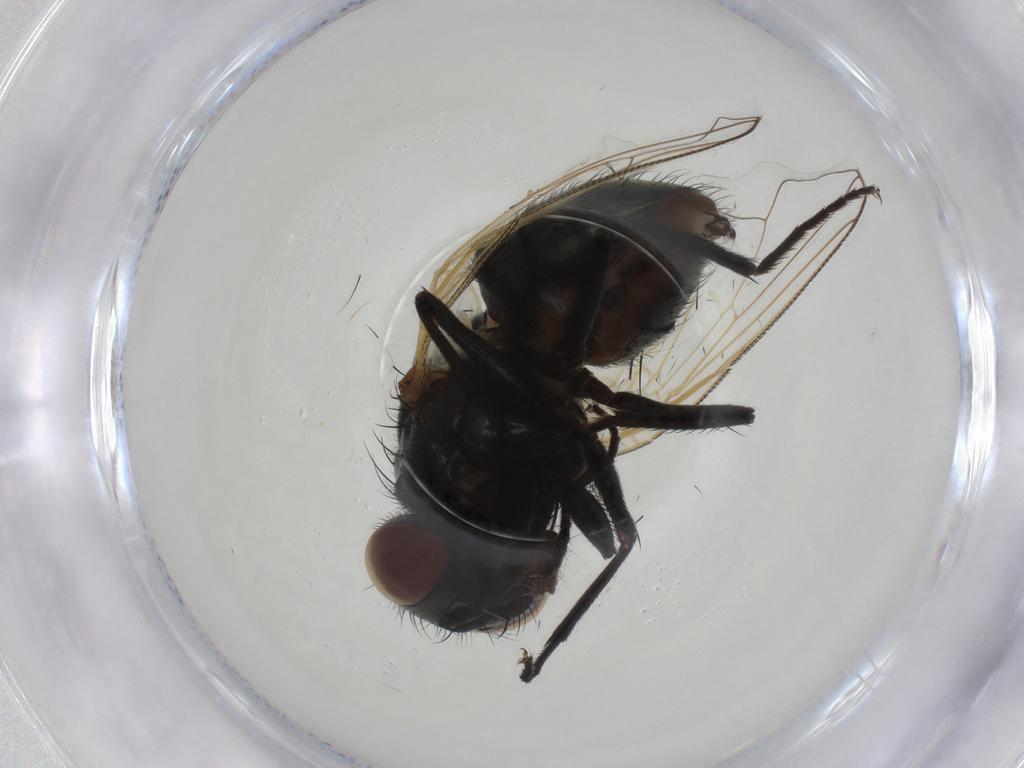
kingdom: Animalia
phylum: Arthropoda
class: Insecta
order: Diptera
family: Muscidae
